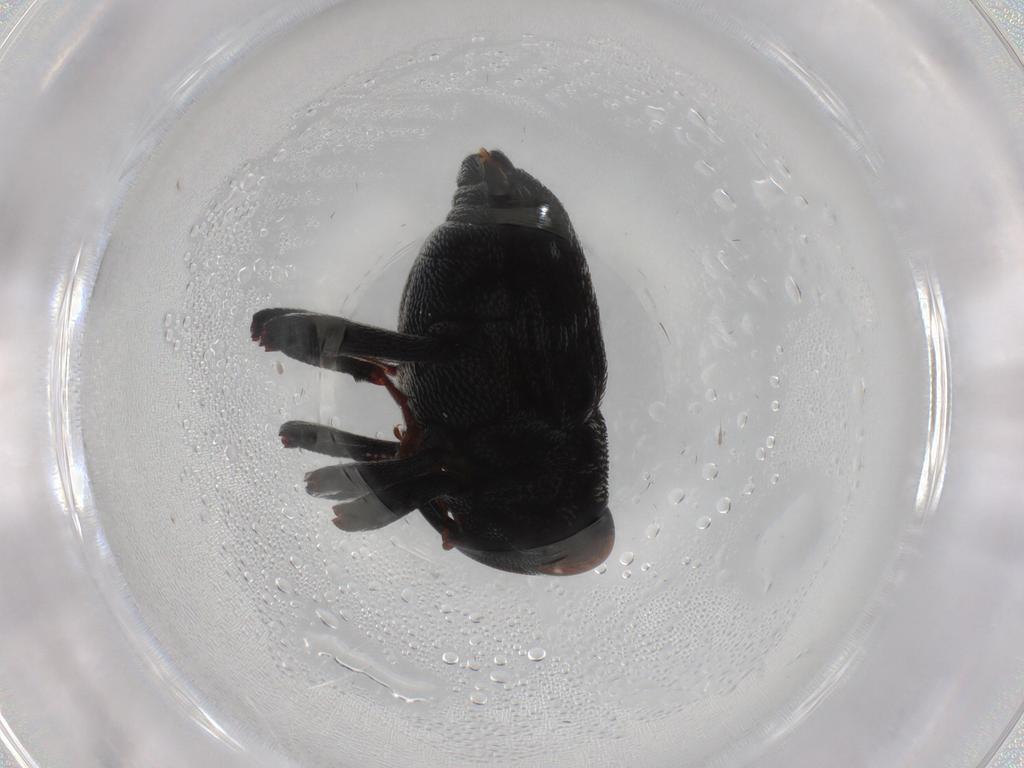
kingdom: Animalia
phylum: Arthropoda
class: Insecta
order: Coleoptera
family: Curculionidae
